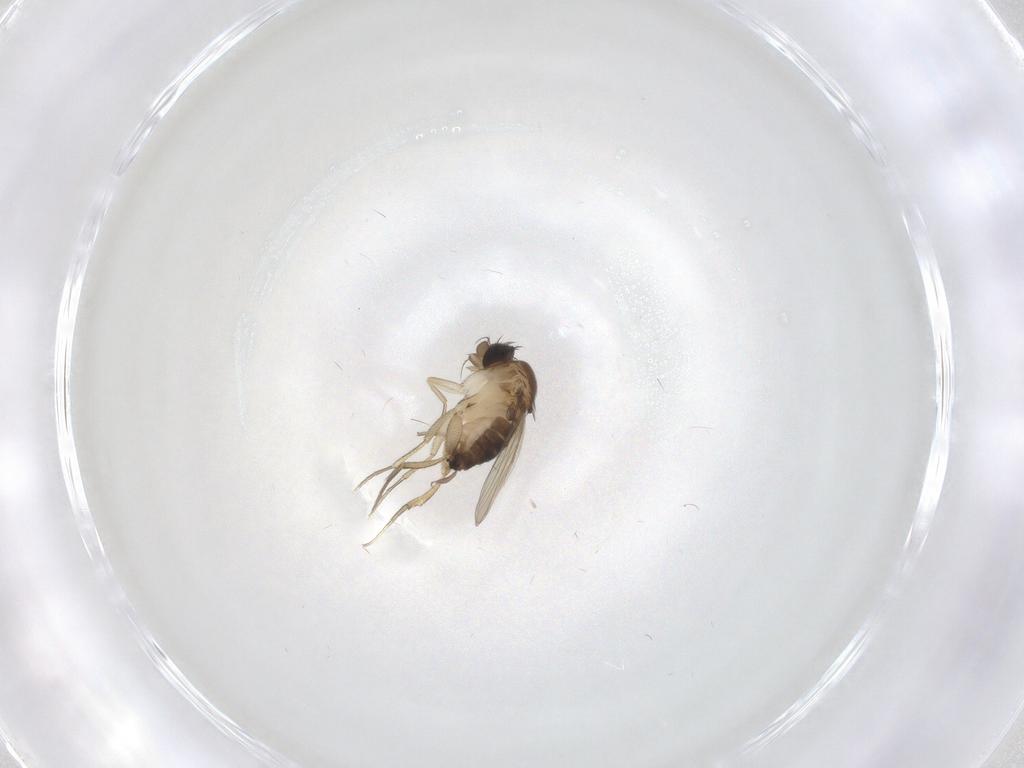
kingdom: Animalia
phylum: Arthropoda
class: Insecta
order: Diptera
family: Phoridae
